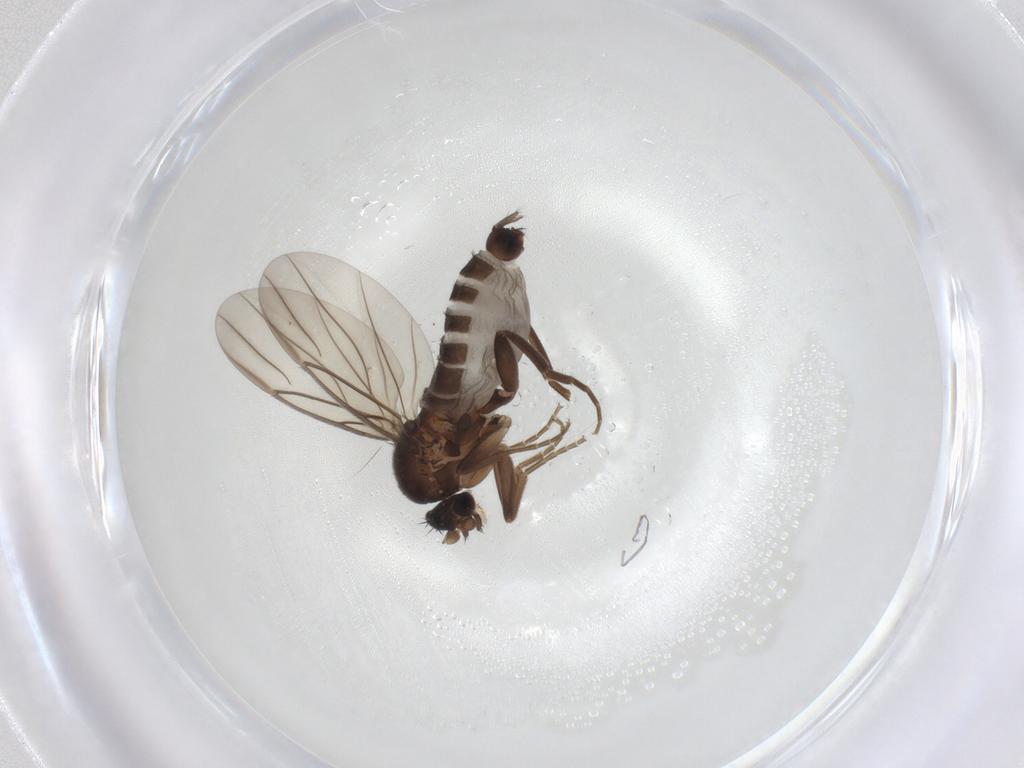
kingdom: Animalia
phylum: Arthropoda
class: Insecta
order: Diptera
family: Chironomidae
